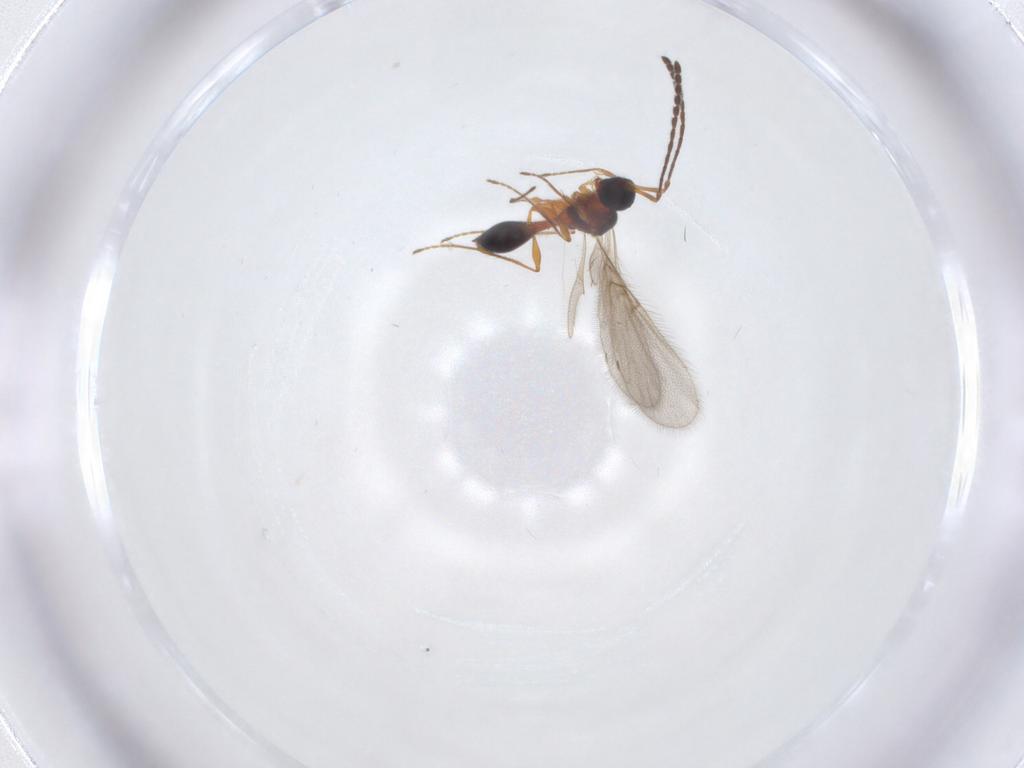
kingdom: Animalia
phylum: Arthropoda
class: Insecta
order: Hymenoptera
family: Diapriidae
